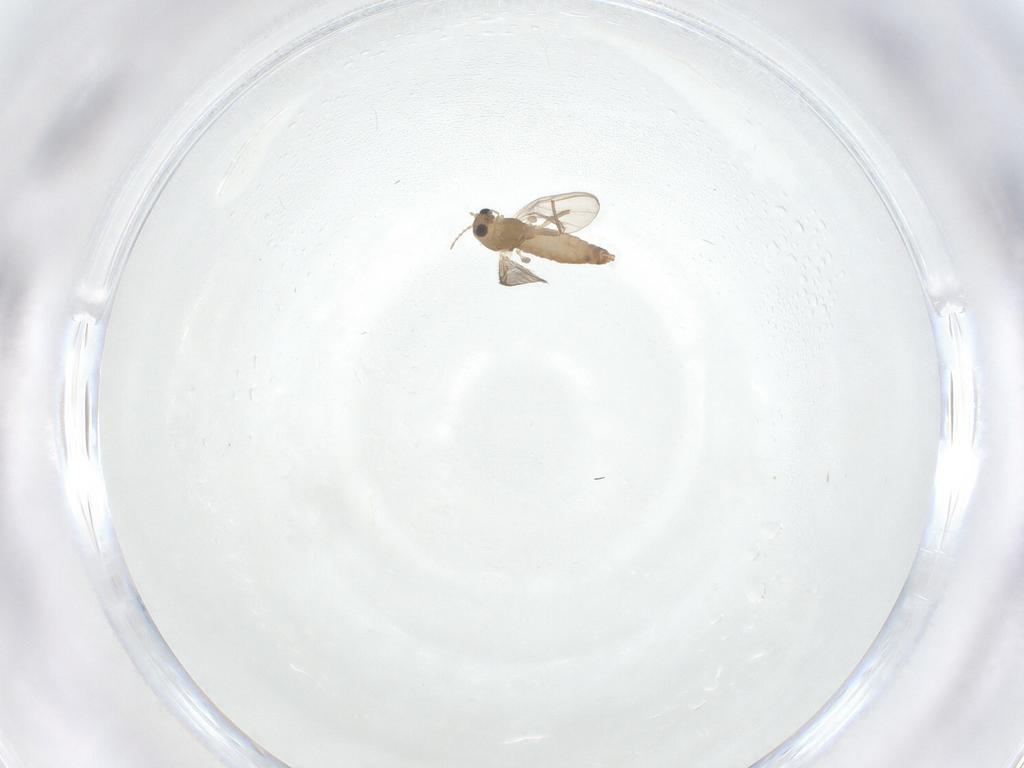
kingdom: Animalia
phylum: Arthropoda
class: Insecta
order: Diptera
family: Chironomidae
